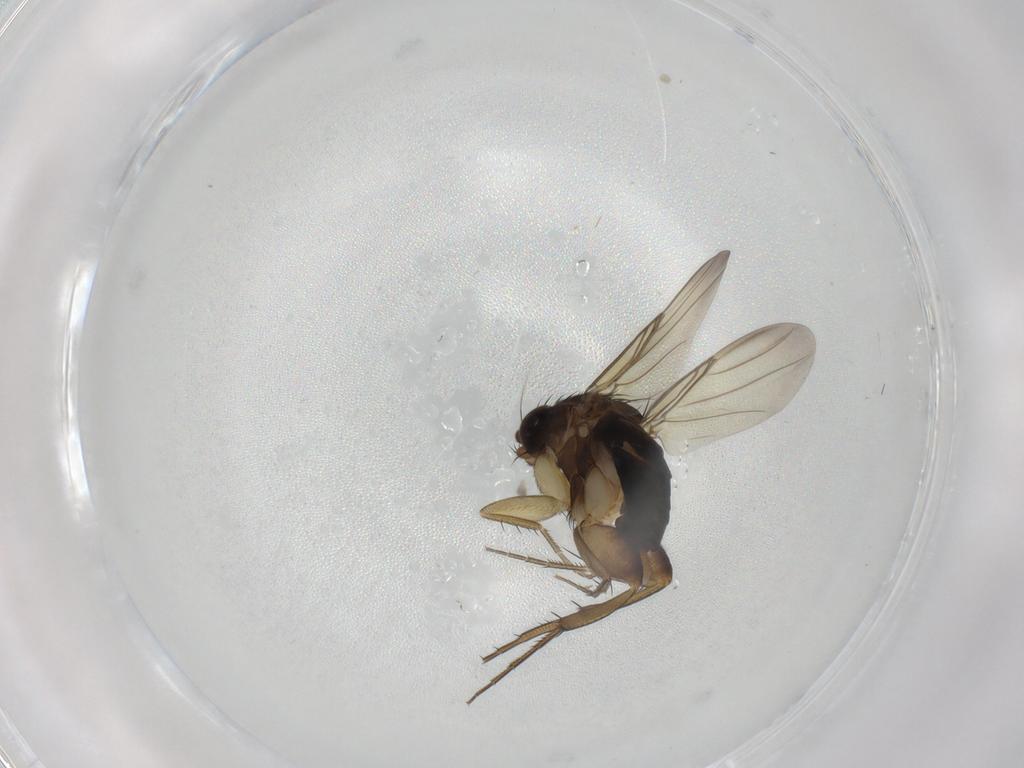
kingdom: Animalia
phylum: Arthropoda
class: Insecta
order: Diptera
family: Phoridae
